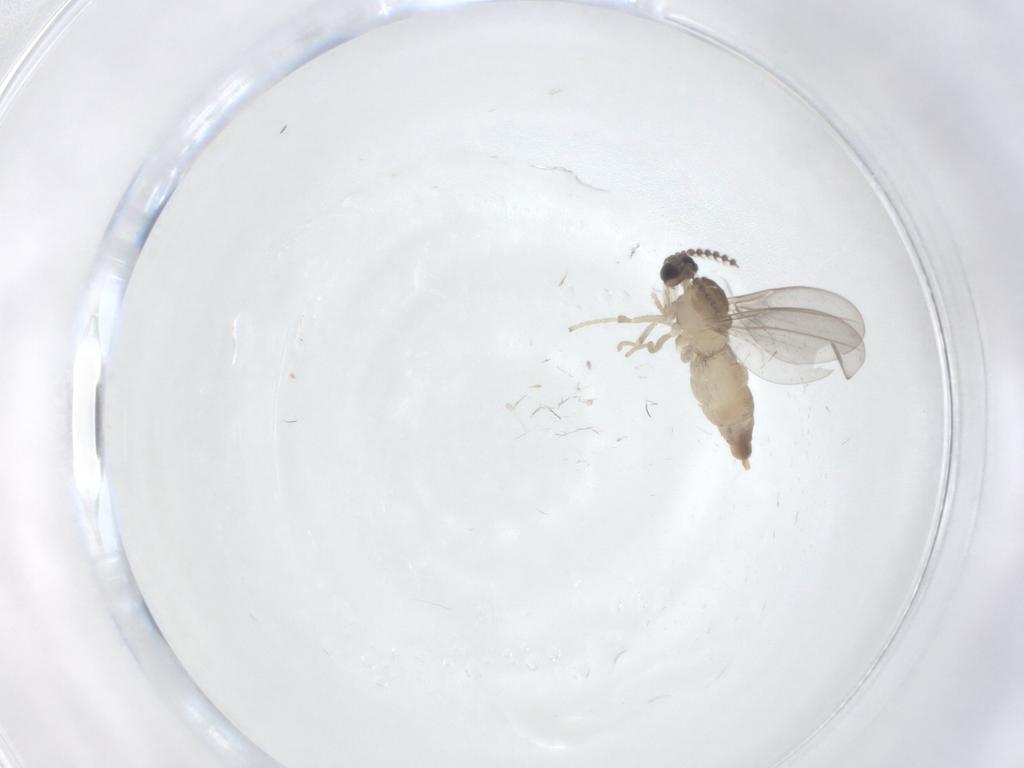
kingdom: Animalia
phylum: Arthropoda
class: Insecta
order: Diptera
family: Cecidomyiidae
